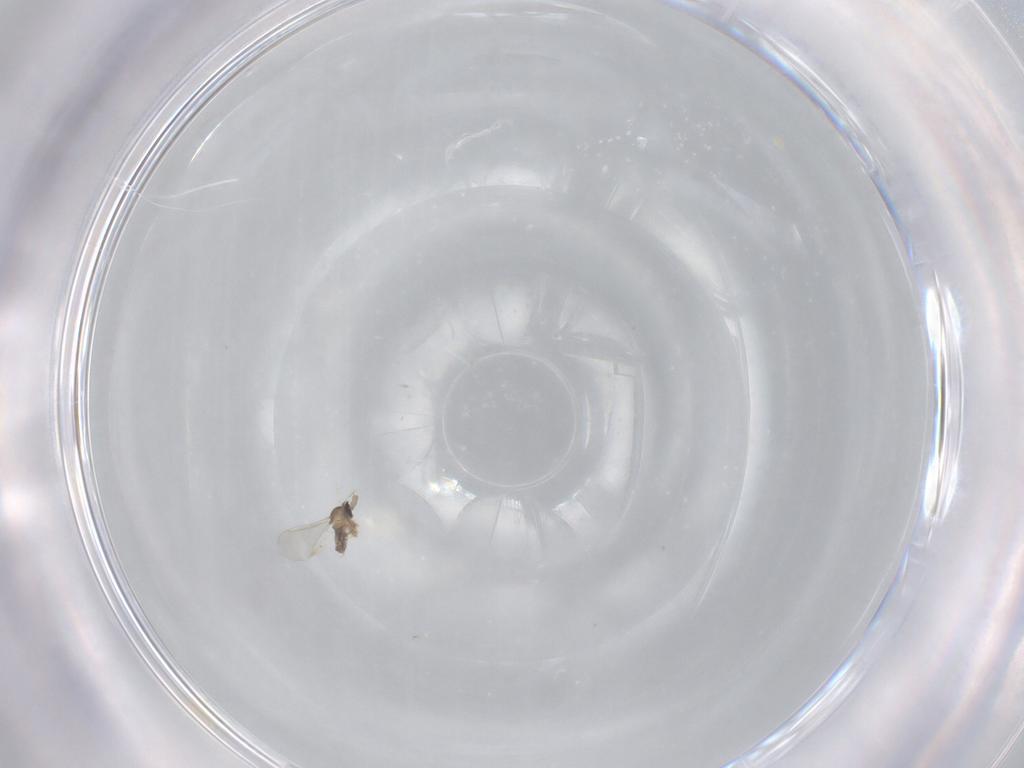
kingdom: Animalia
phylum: Arthropoda
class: Insecta
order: Diptera
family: Cecidomyiidae
